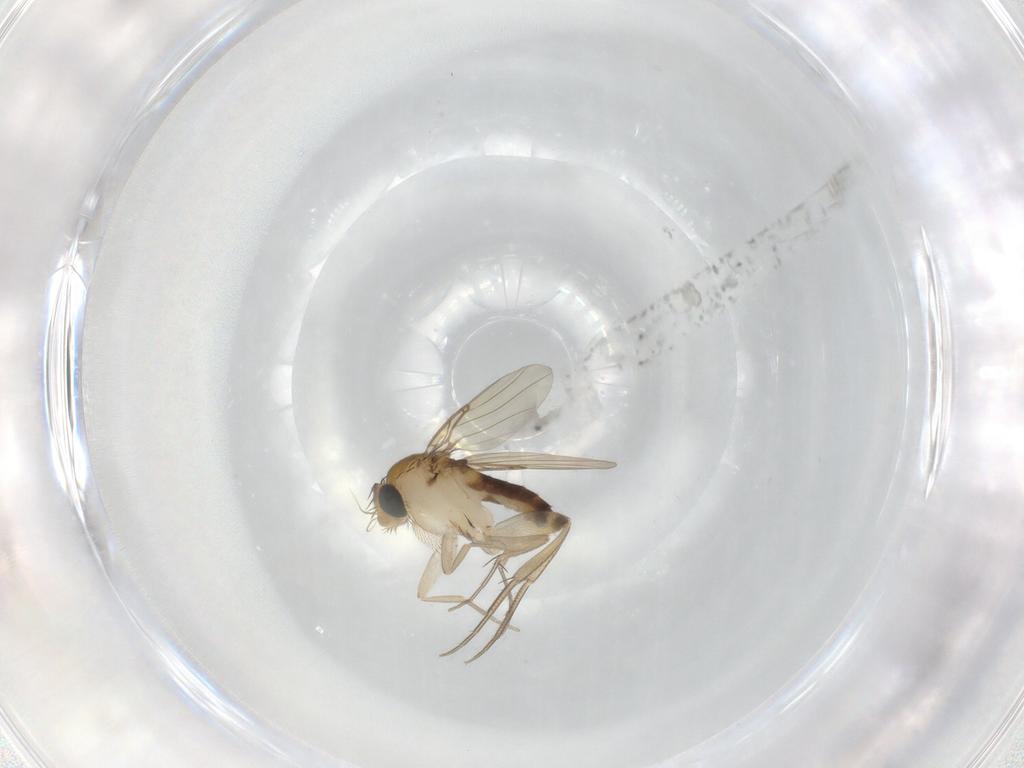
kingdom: Animalia
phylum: Arthropoda
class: Insecta
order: Diptera
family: Phoridae
